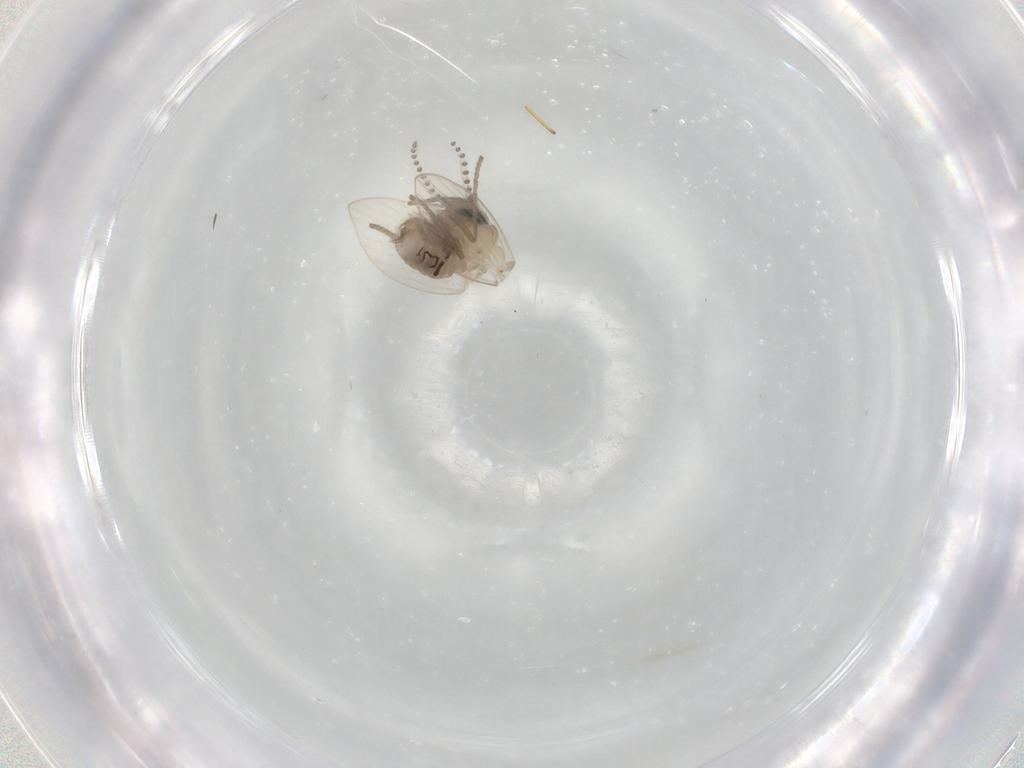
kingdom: Animalia
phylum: Arthropoda
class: Insecta
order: Diptera
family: Psychodidae
